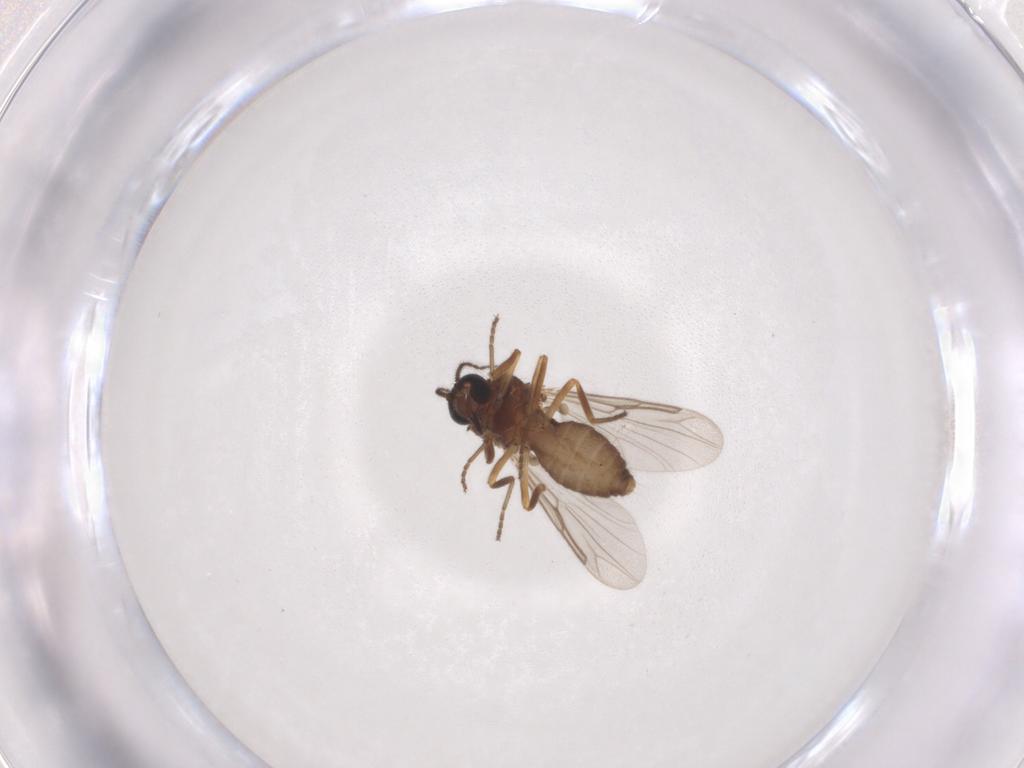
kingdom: Animalia
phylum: Arthropoda
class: Insecta
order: Diptera
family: Ceratopogonidae
